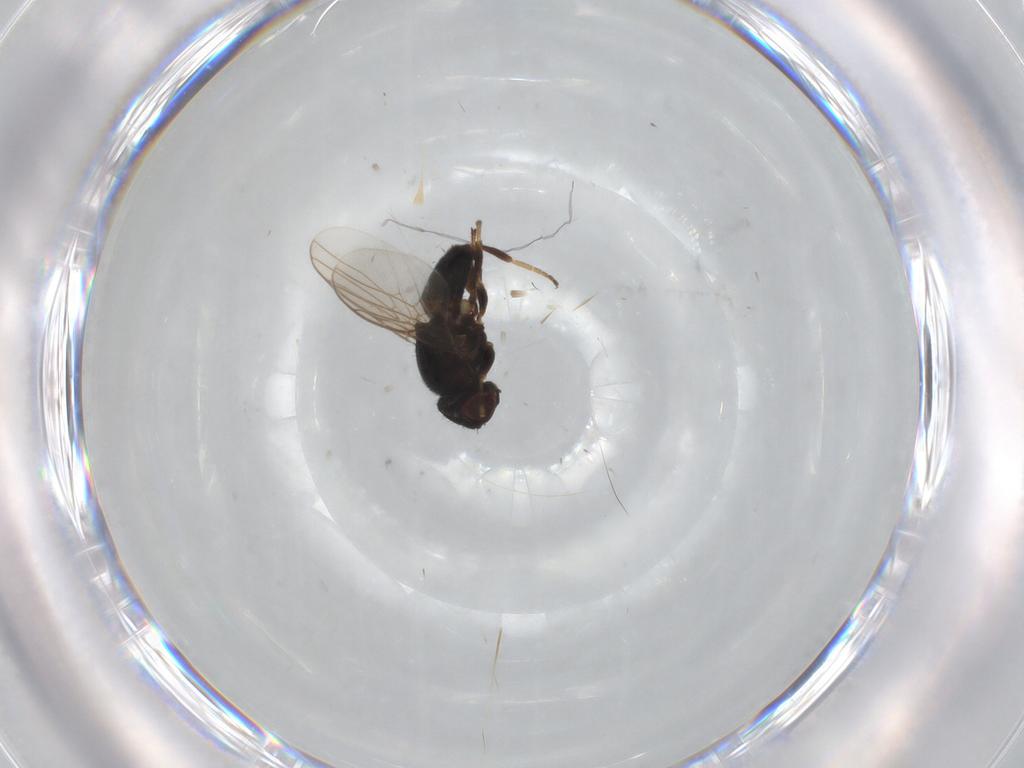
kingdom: Animalia
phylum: Arthropoda
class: Insecta
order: Diptera
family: Chloropidae
